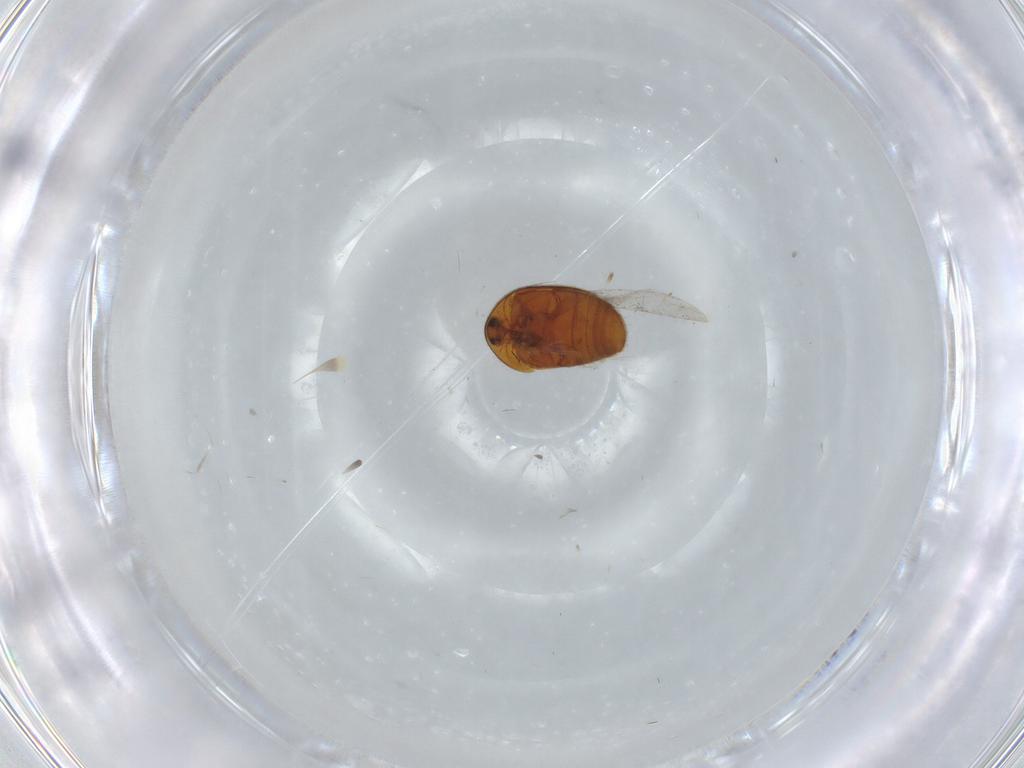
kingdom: Animalia
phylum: Arthropoda
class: Insecta
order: Coleoptera
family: Corylophidae
